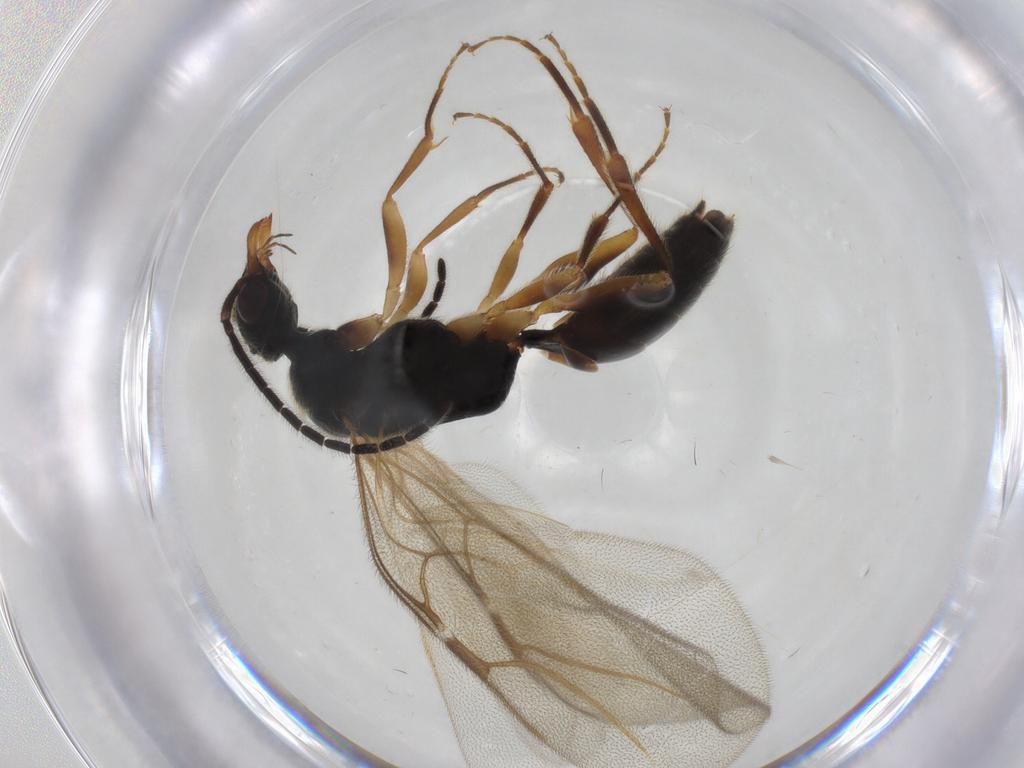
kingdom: Animalia
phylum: Arthropoda
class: Insecta
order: Hymenoptera
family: Bethylidae
